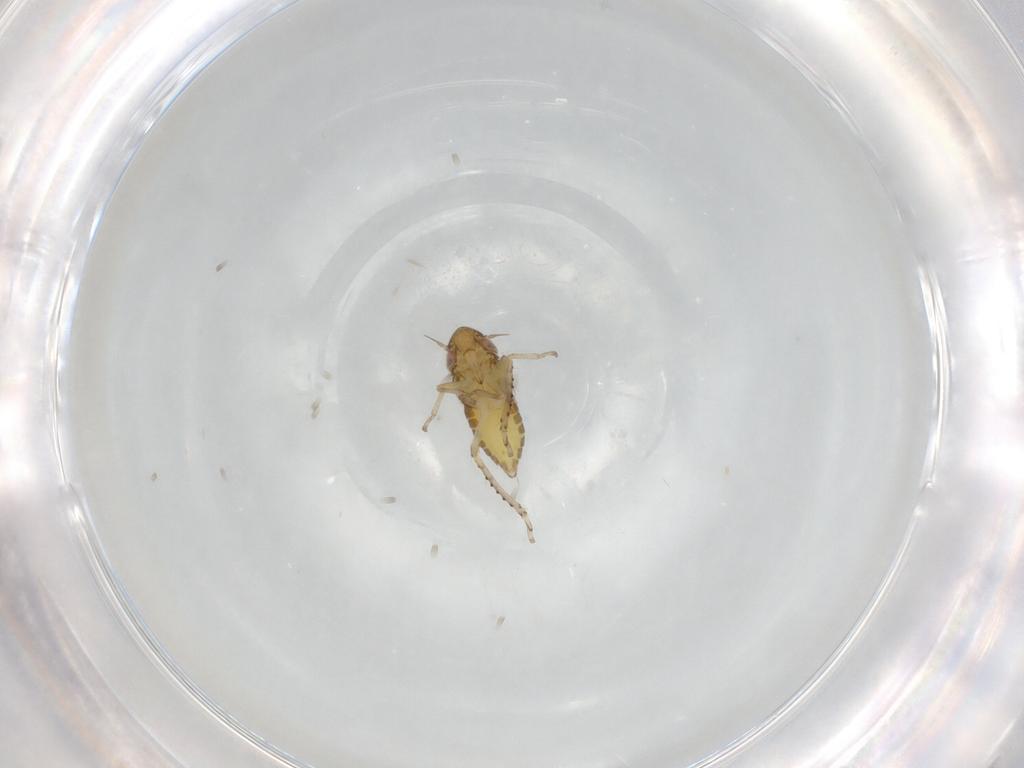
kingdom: Animalia
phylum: Arthropoda
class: Insecta
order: Hemiptera
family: Cicadellidae
